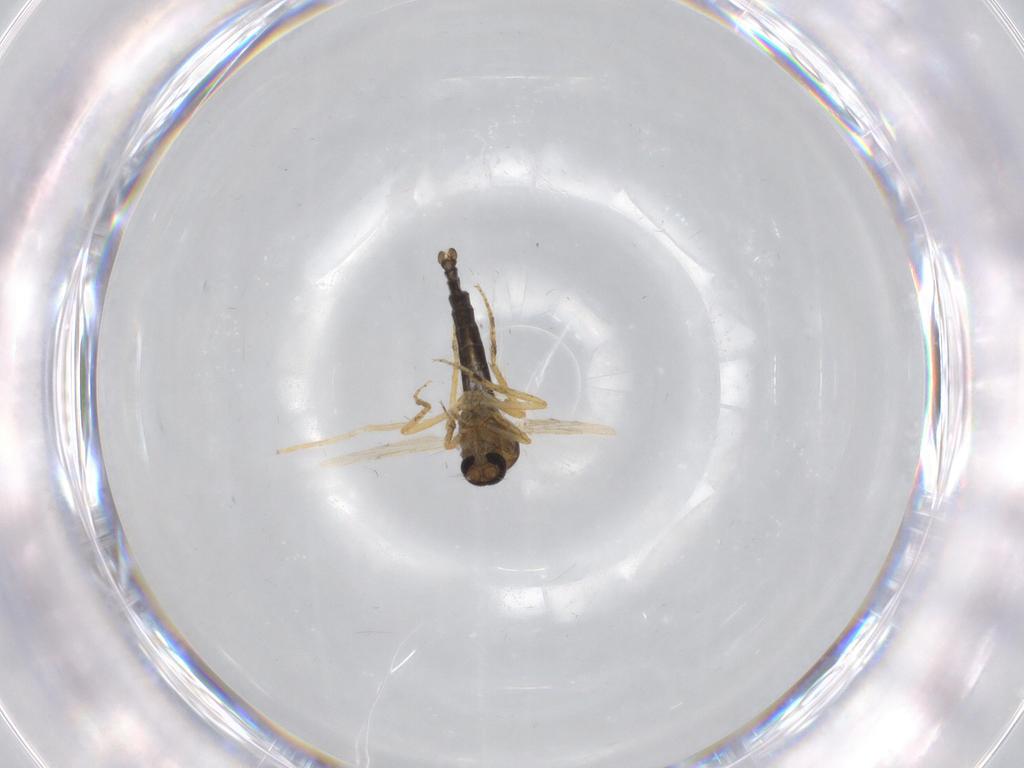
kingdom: Animalia
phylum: Arthropoda
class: Insecta
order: Diptera
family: Ceratopogonidae
